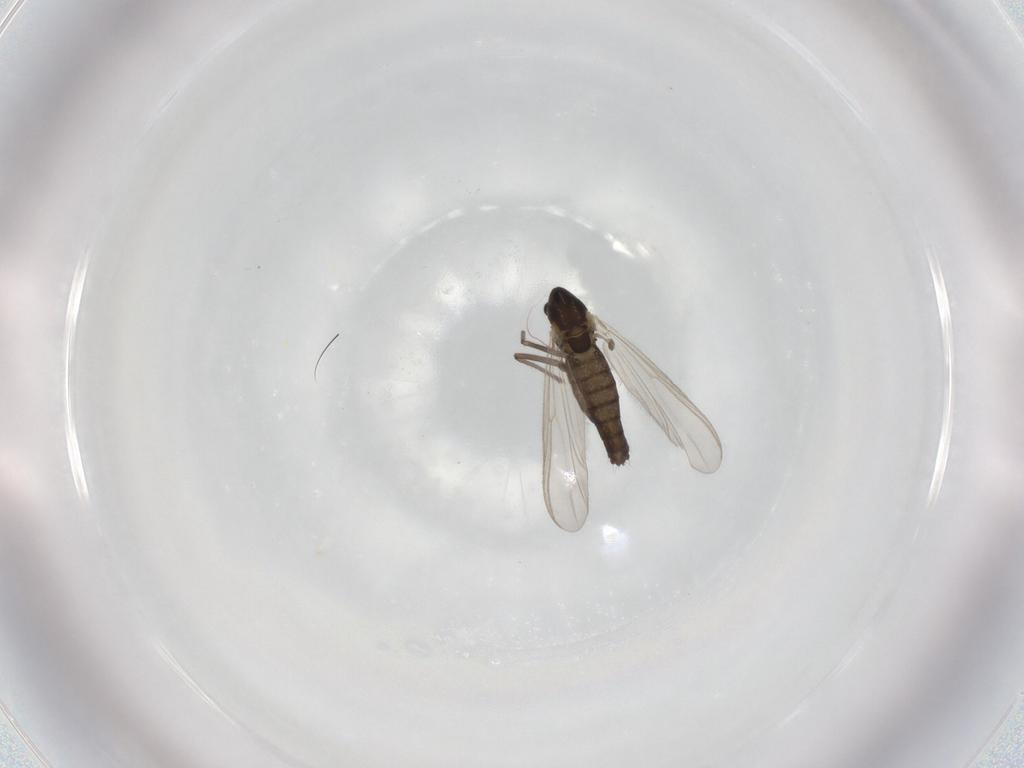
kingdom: Animalia
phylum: Arthropoda
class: Insecta
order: Diptera
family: Chironomidae
